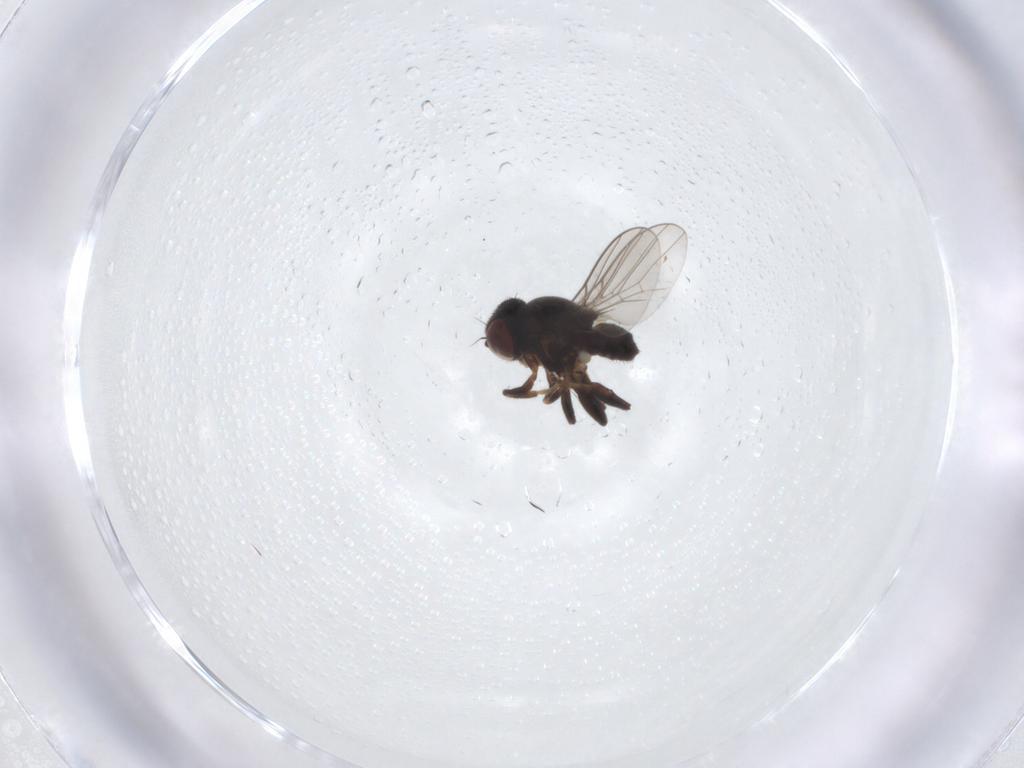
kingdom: Animalia
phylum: Arthropoda
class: Insecta
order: Diptera
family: Chloropidae
